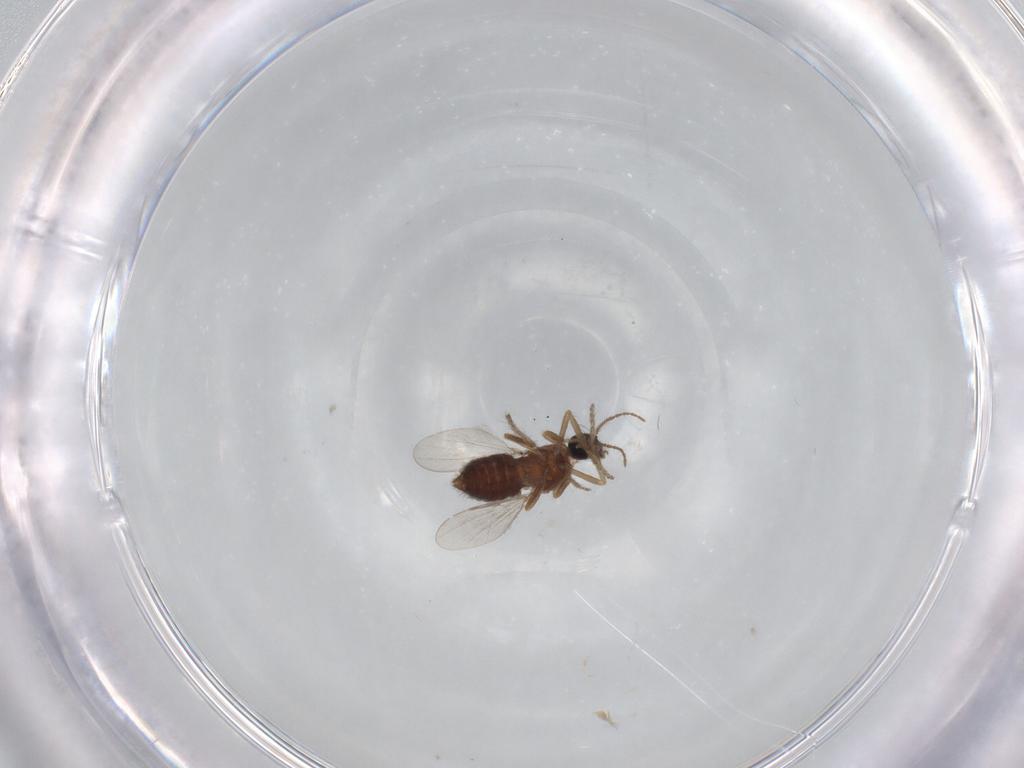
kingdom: Animalia
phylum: Arthropoda
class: Insecta
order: Diptera
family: Ceratopogonidae
